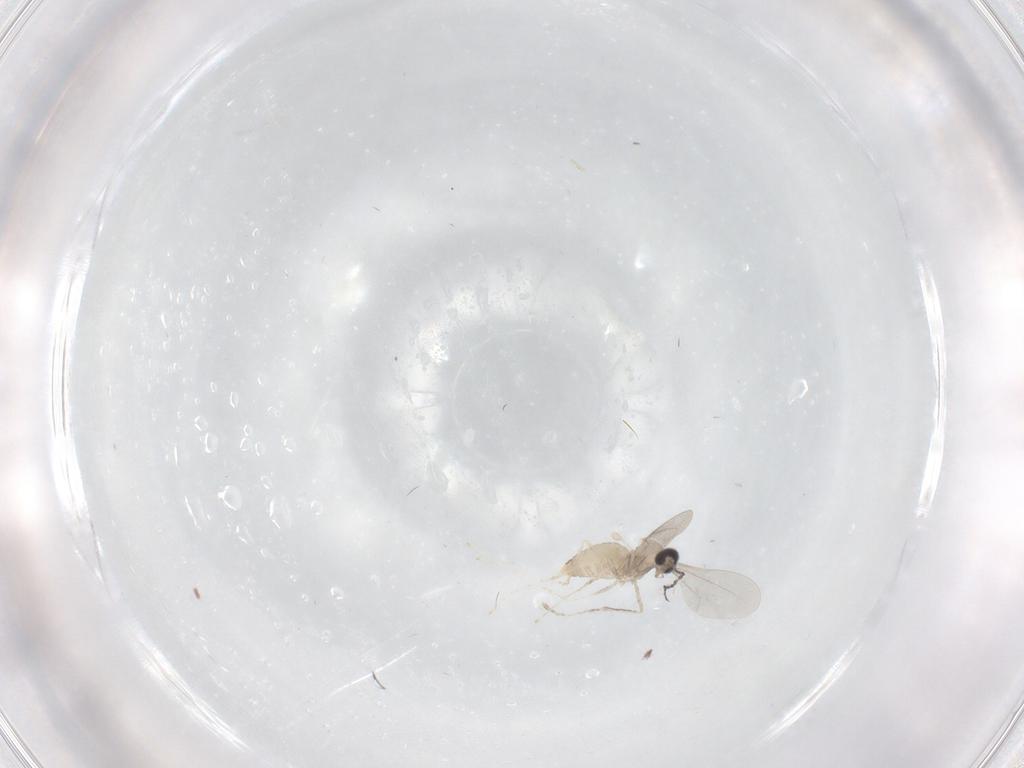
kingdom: Animalia
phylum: Arthropoda
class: Insecta
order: Diptera
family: Cecidomyiidae
